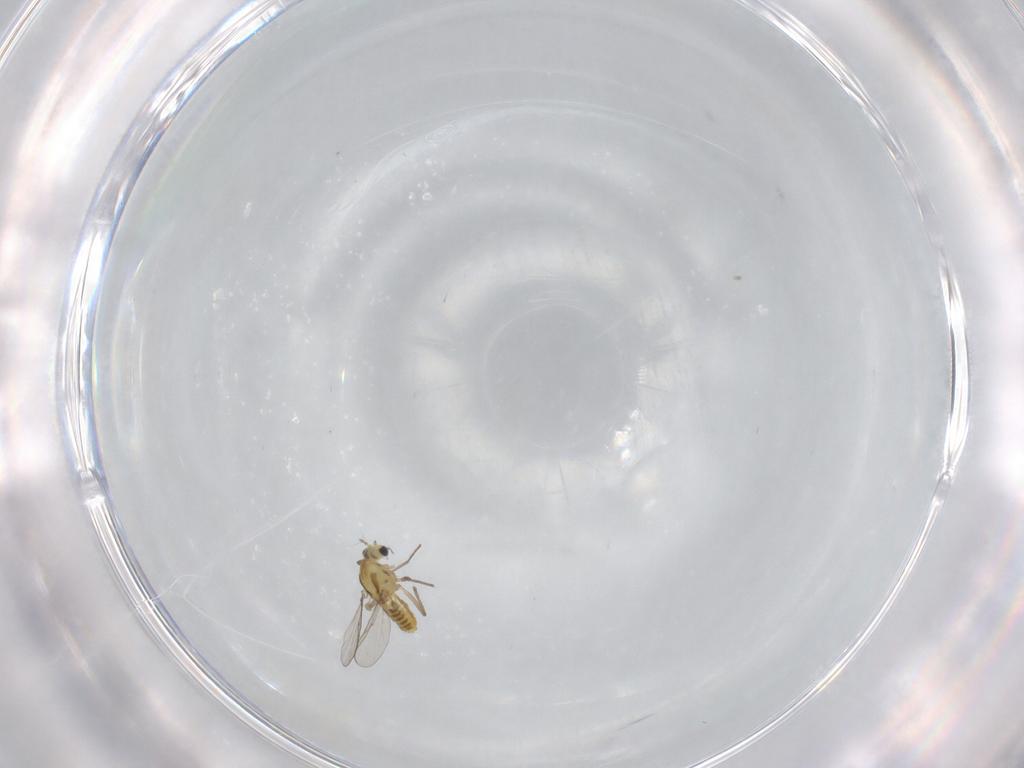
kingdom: Animalia
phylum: Arthropoda
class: Insecta
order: Diptera
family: Chironomidae
